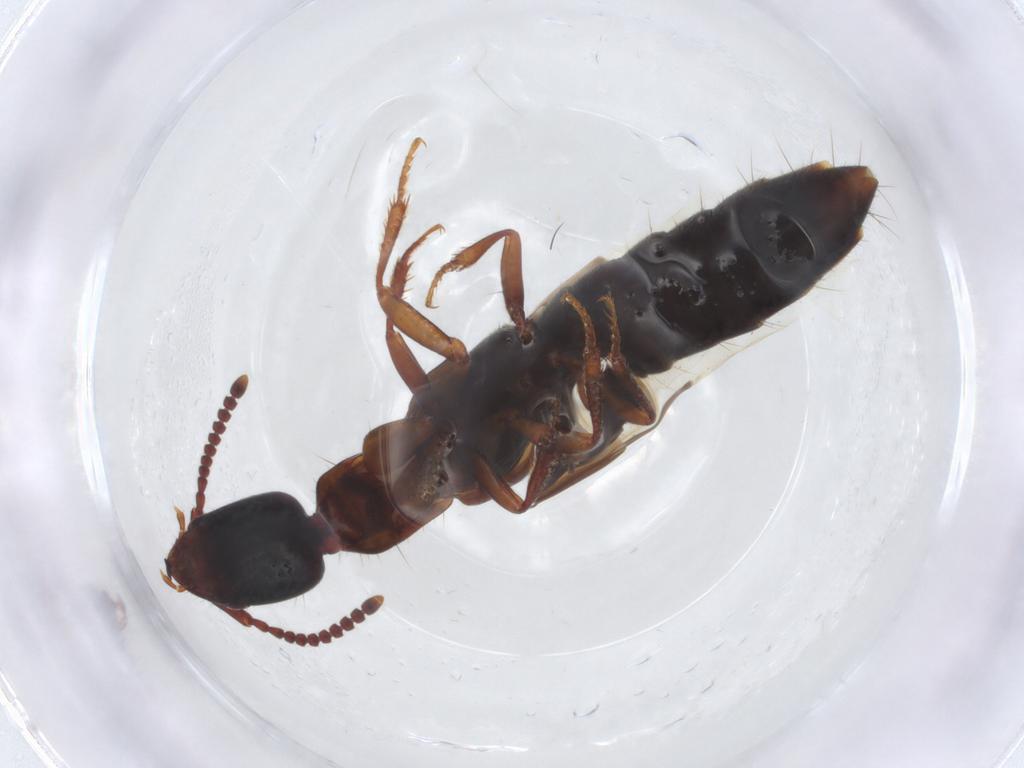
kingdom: Animalia
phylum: Arthropoda
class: Insecta
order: Coleoptera
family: Staphylinidae
